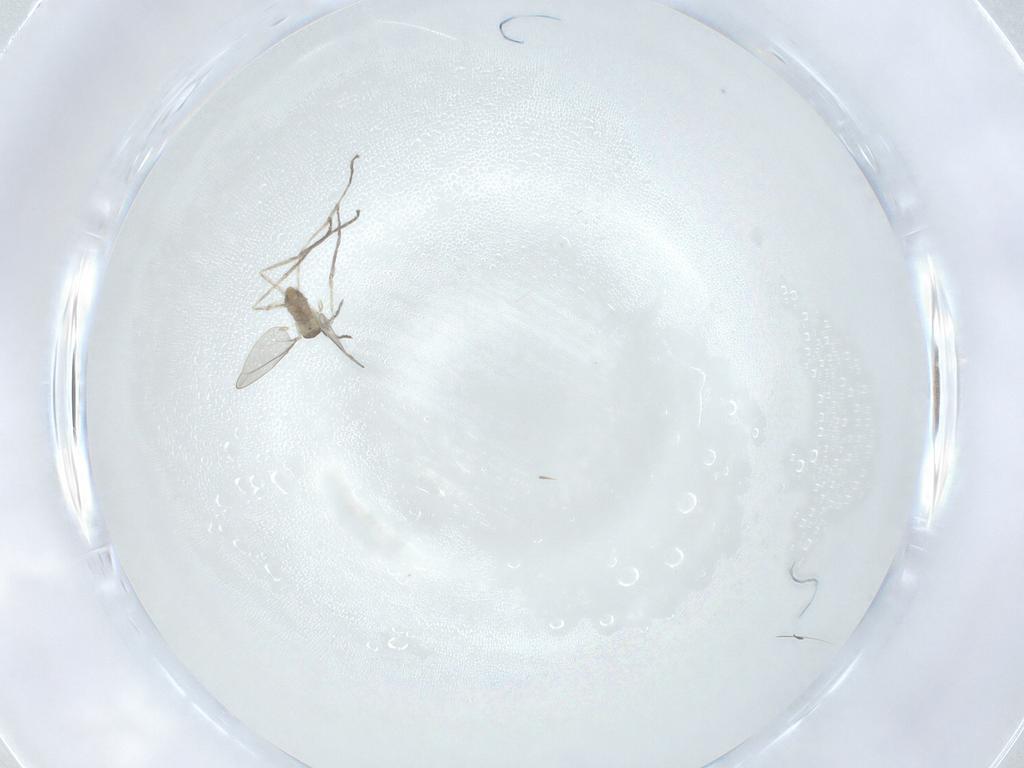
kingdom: Animalia
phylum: Arthropoda
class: Insecta
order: Diptera
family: Cecidomyiidae
